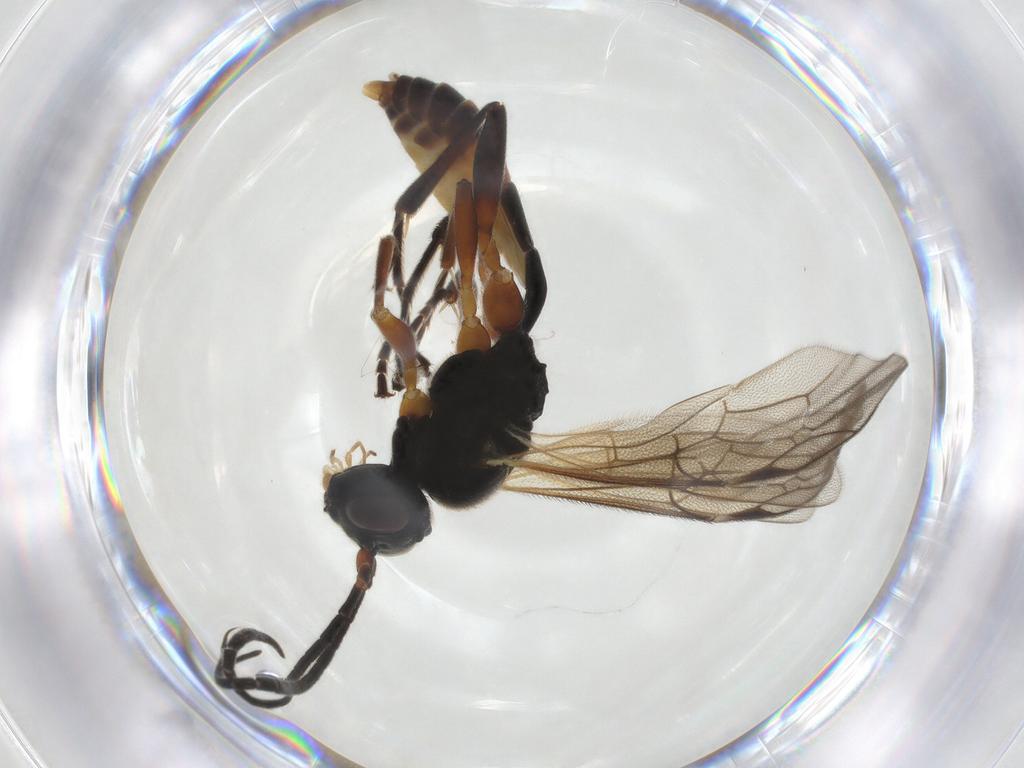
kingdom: Animalia
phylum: Arthropoda
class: Insecta
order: Hymenoptera
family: Ichneumonidae
